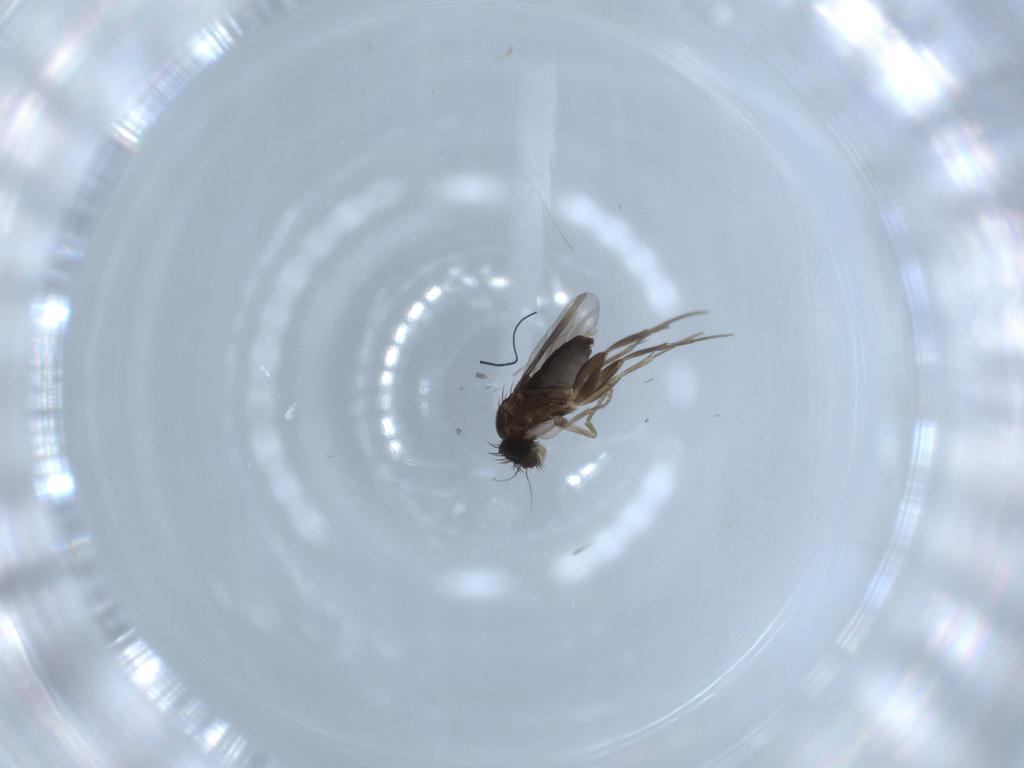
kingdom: Animalia
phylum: Arthropoda
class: Insecta
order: Diptera
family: Phoridae
